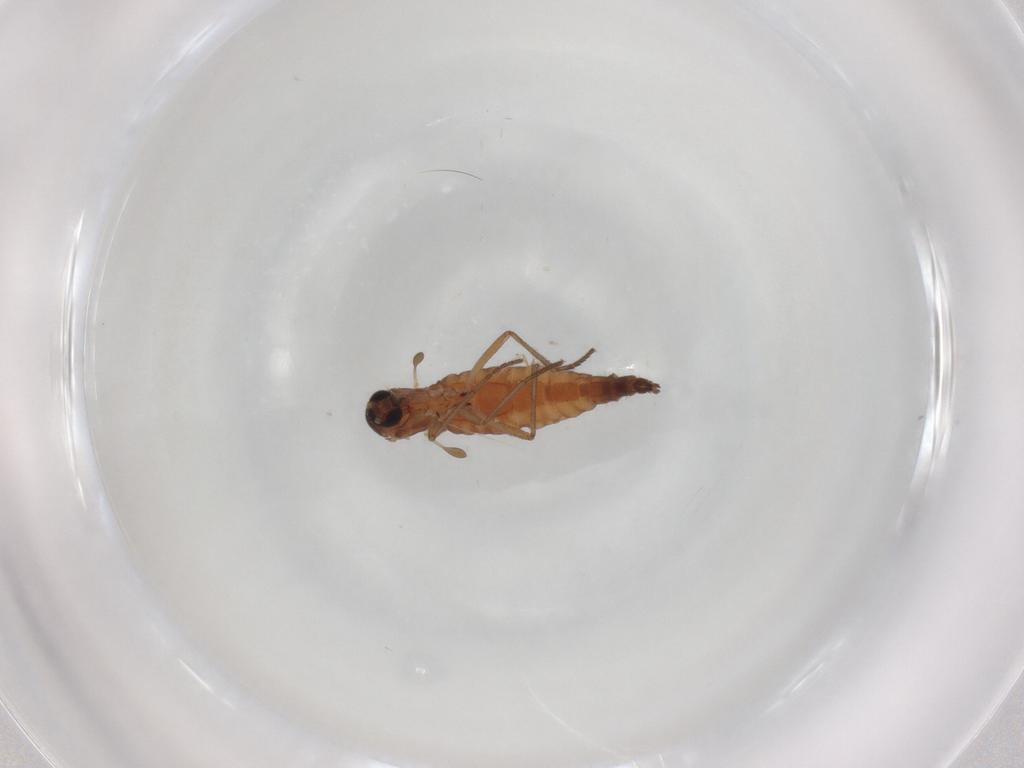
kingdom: Animalia
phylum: Arthropoda
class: Insecta
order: Diptera
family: Sciaridae
